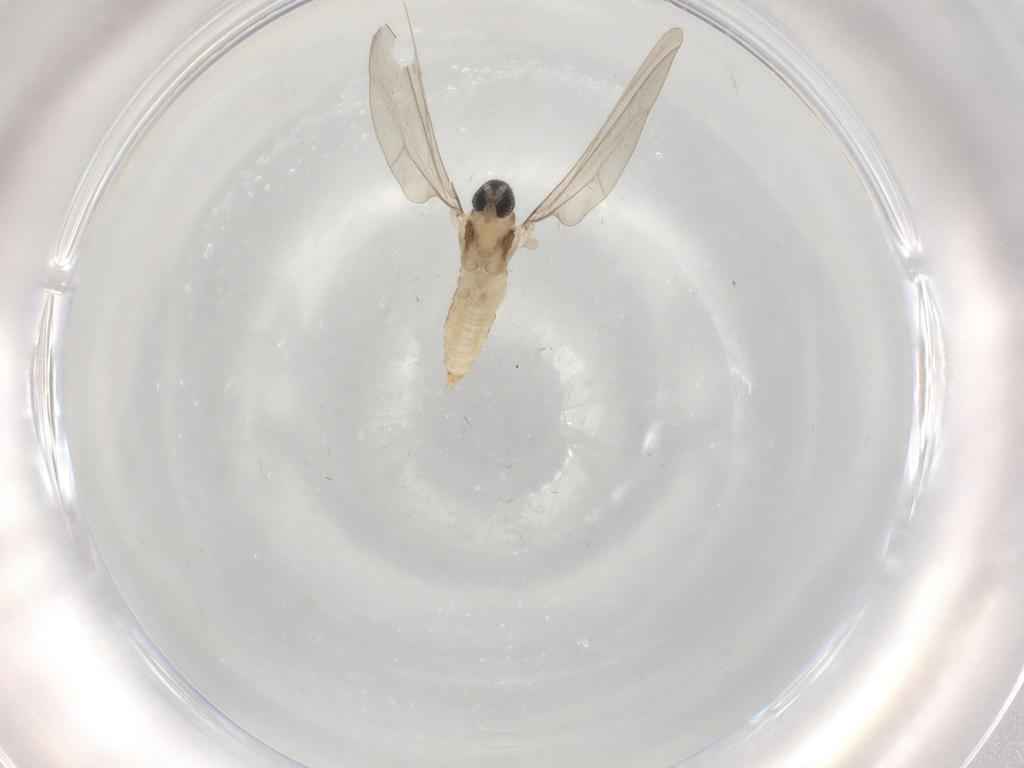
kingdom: Animalia
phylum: Arthropoda
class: Insecta
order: Diptera
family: Cecidomyiidae
